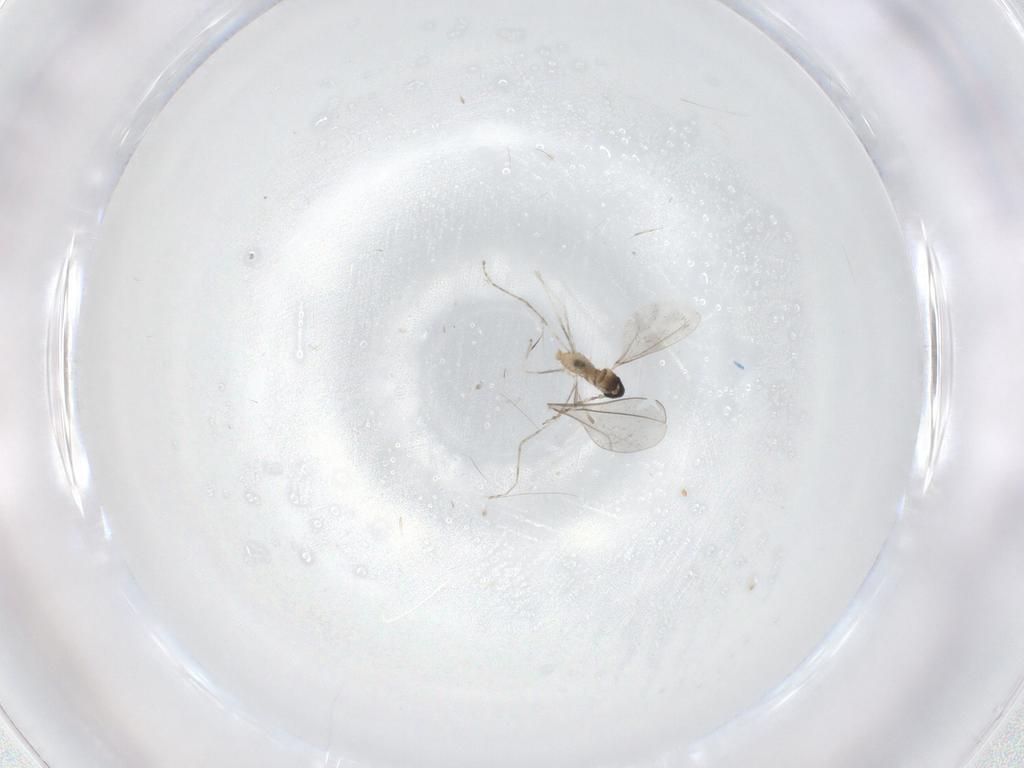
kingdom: Animalia
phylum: Arthropoda
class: Insecta
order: Diptera
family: Cecidomyiidae
